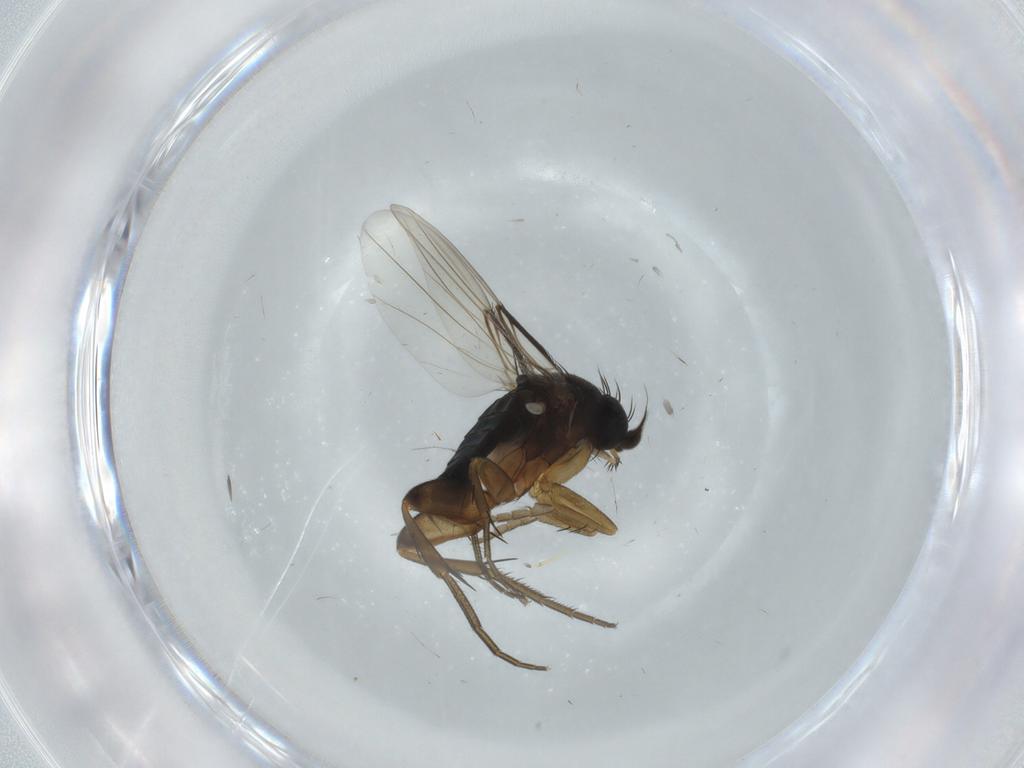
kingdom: Animalia
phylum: Arthropoda
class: Insecta
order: Diptera
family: Phoridae
